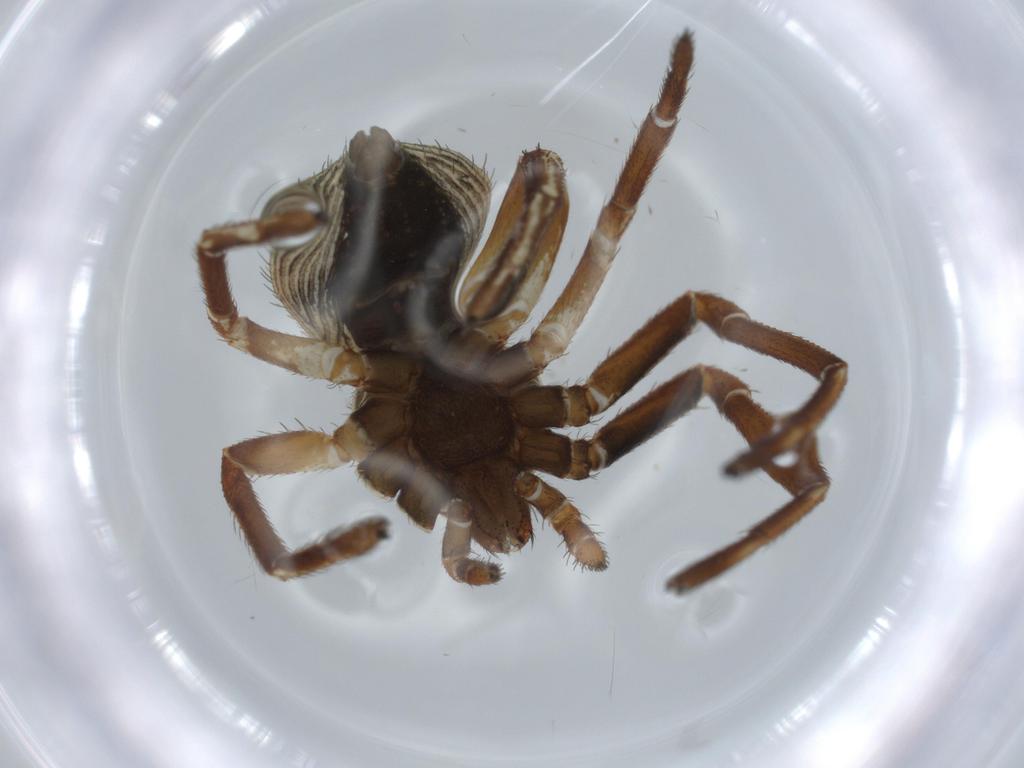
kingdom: Animalia
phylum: Arthropoda
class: Arachnida
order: Araneae
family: Thomisidae
